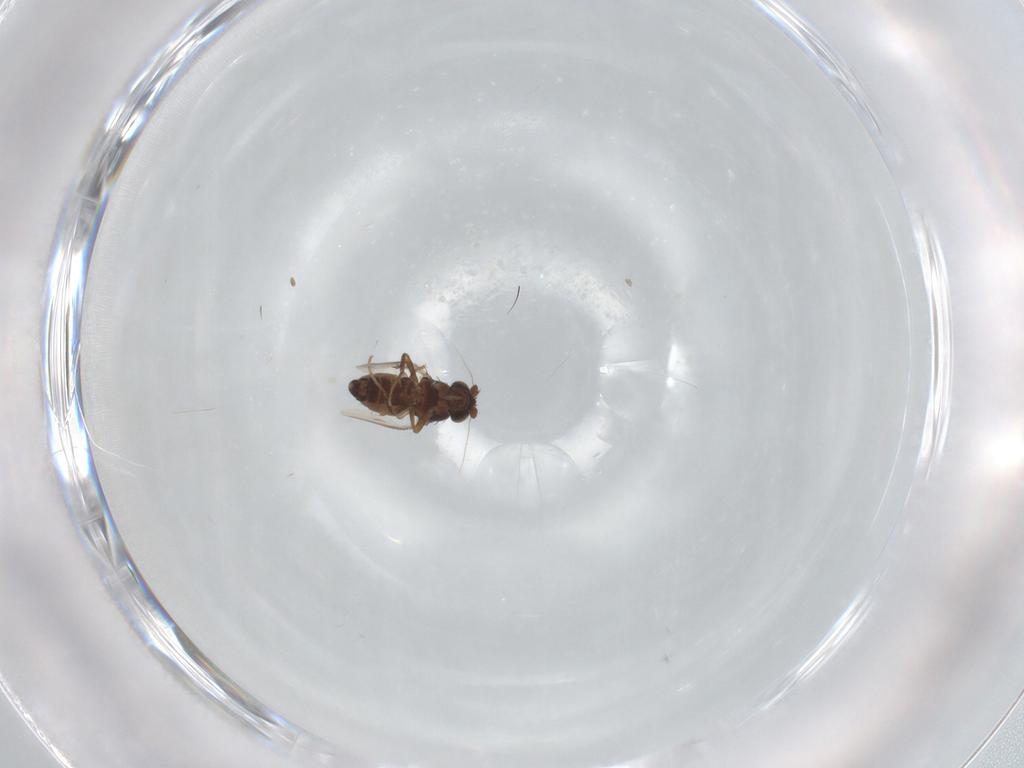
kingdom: Animalia
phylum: Arthropoda
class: Insecta
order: Diptera
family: Sphaeroceridae
